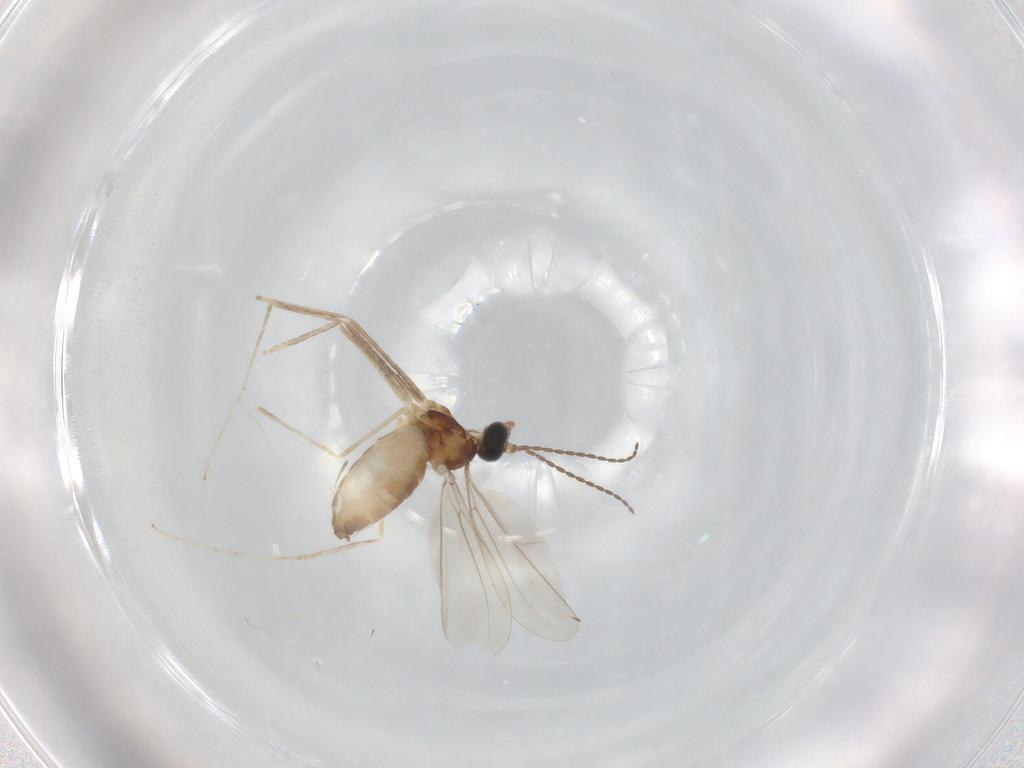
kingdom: Animalia
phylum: Arthropoda
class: Insecta
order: Diptera
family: Cecidomyiidae
